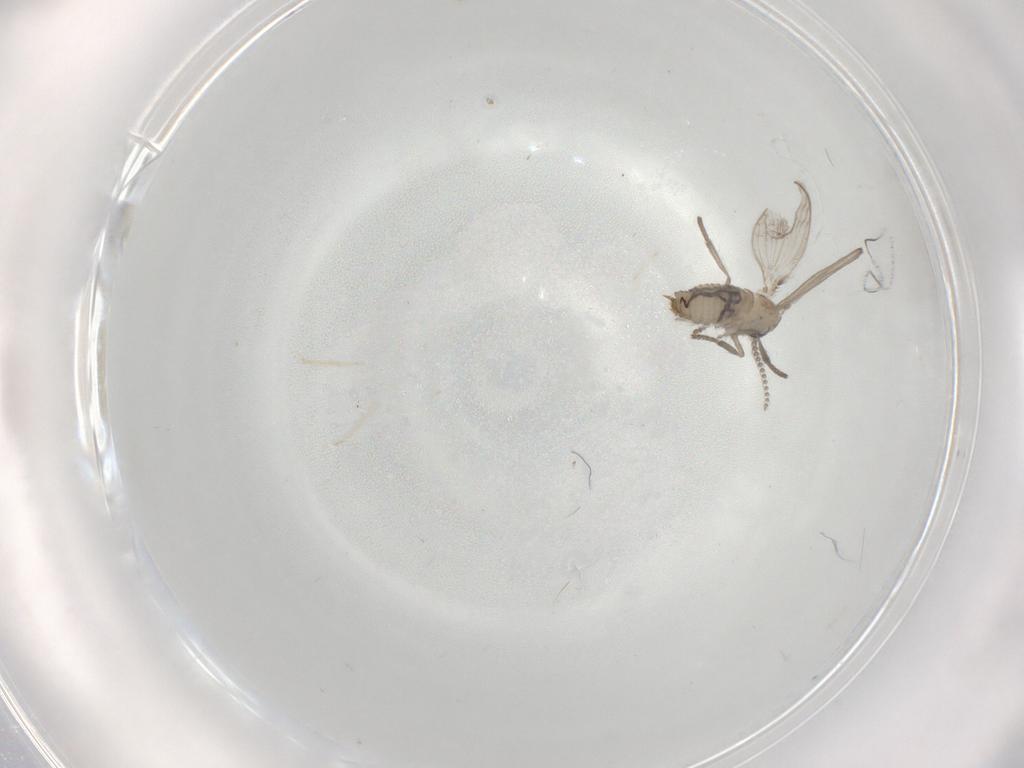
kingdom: Animalia
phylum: Arthropoda
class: Insecta
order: Diptera
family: Psychodidae
